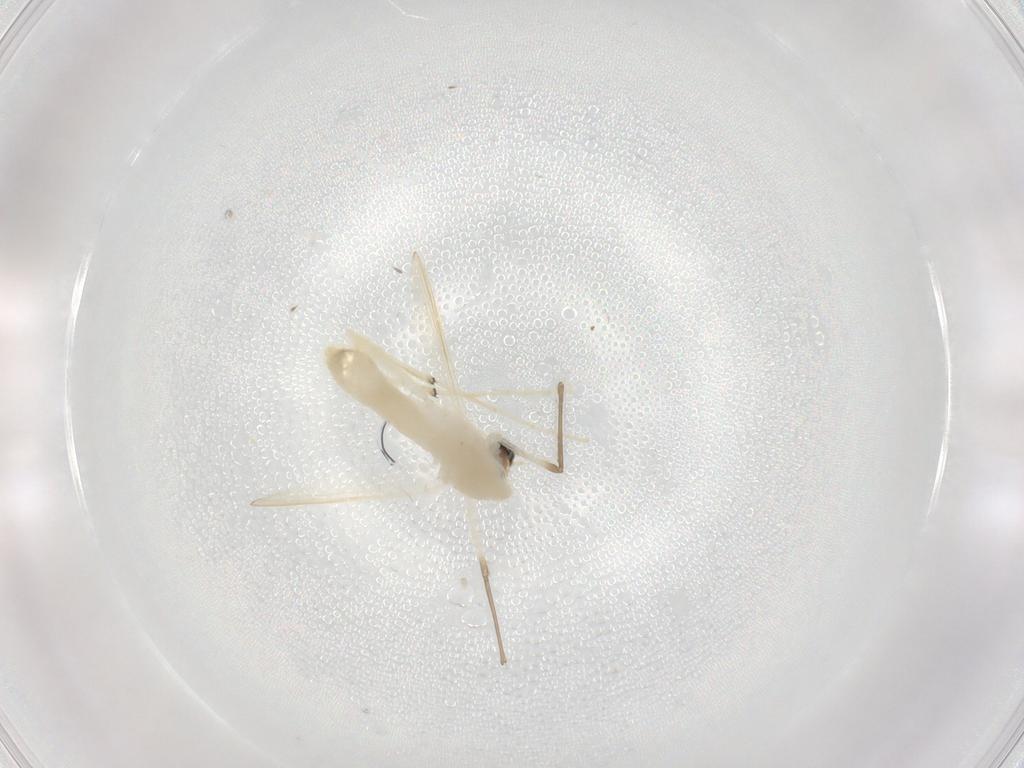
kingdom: Animalia
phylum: Arthropoda
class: Insecta
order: Diptera
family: Chironomidae
